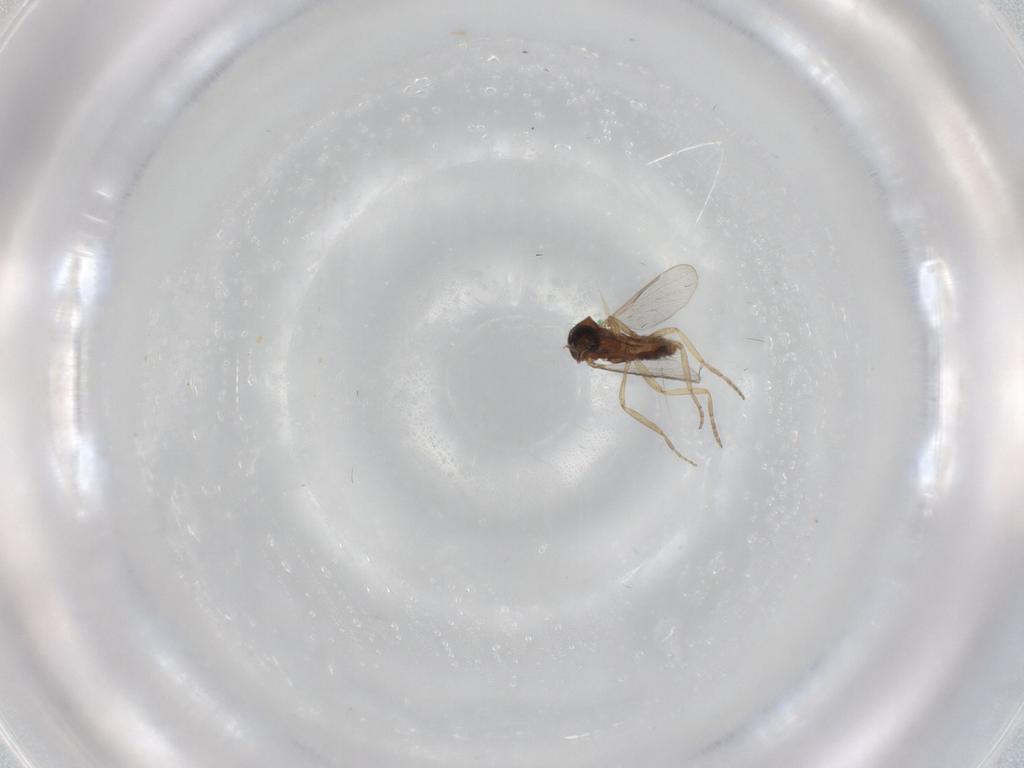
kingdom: Animalia
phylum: Arthropoda
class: Insecta
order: Diptera
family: Ceratopogonidae
